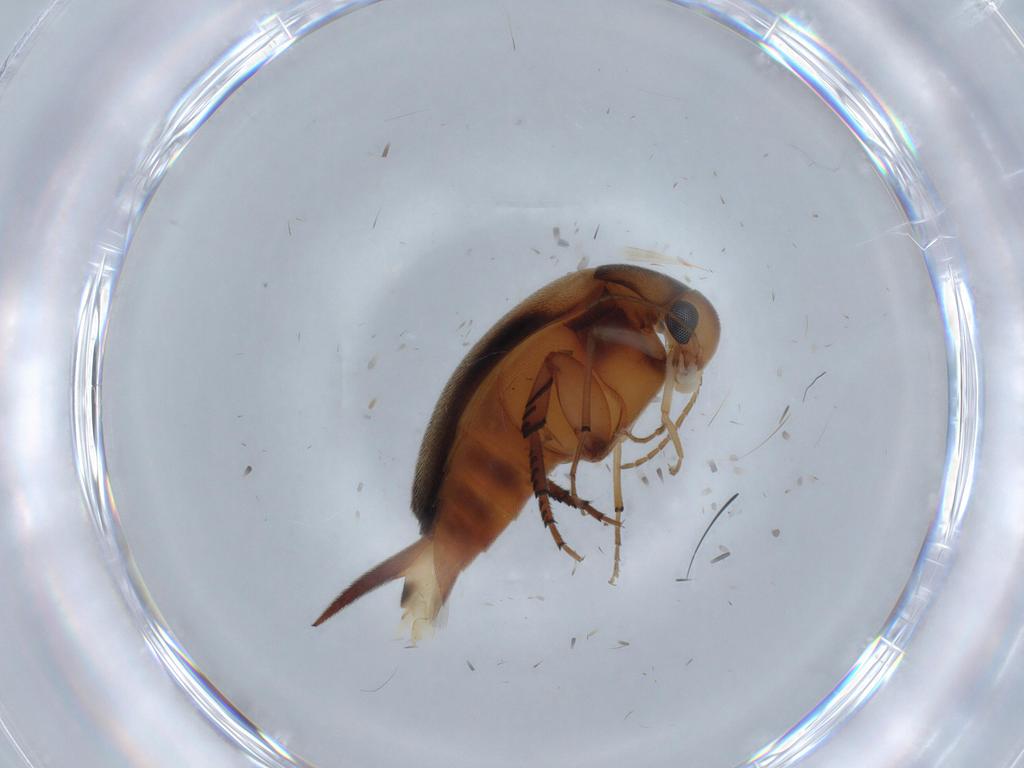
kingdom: Animalia
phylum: Arthropoda
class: Insecta
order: Coleoptera
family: Mordellidae
